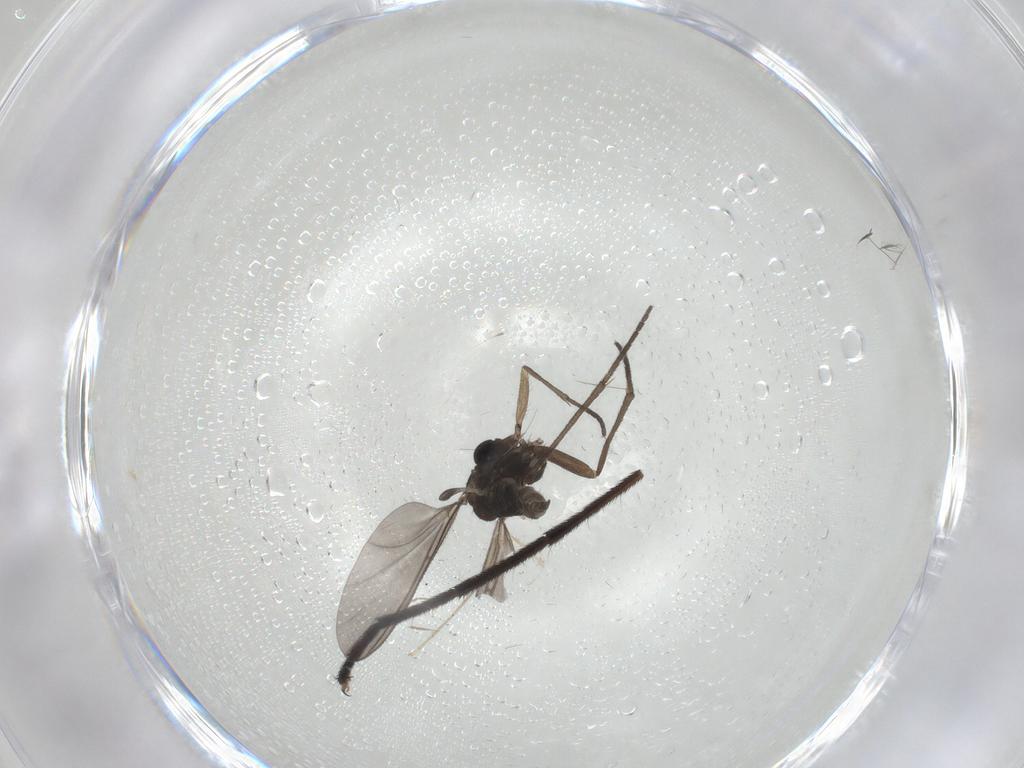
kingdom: Animalia
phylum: Arthropoda
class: Insecta
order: Diptera
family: Athericidae
